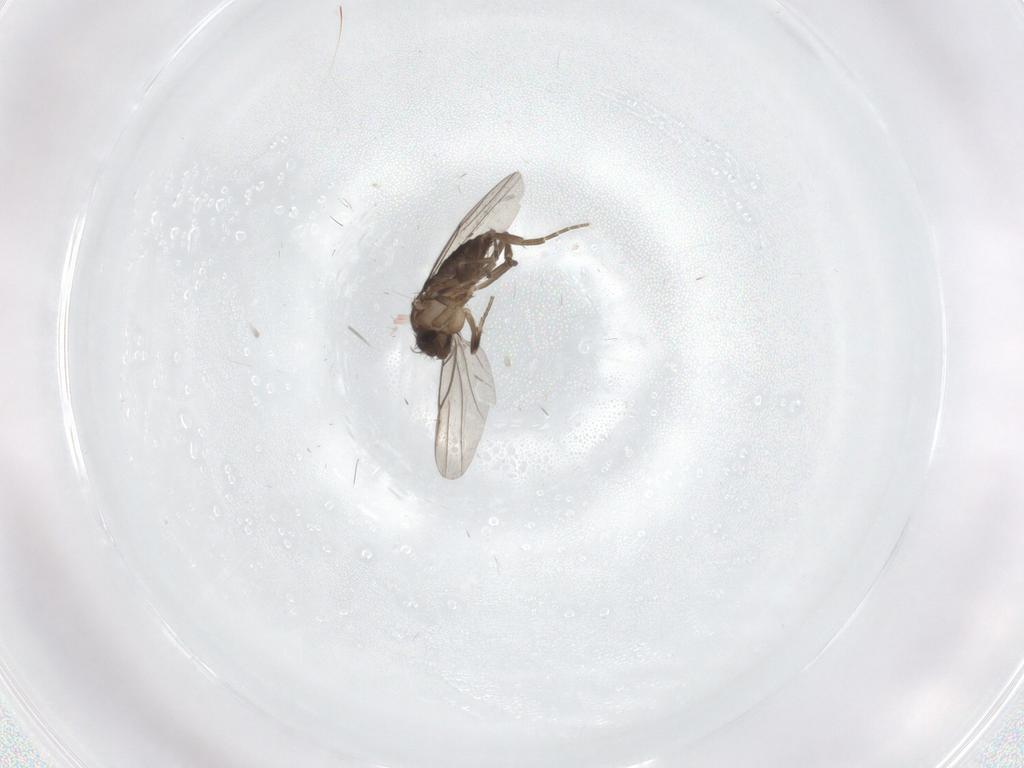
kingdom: Animalia
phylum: Arthropoda
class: Insecta
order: Diptera
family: Phoridae
